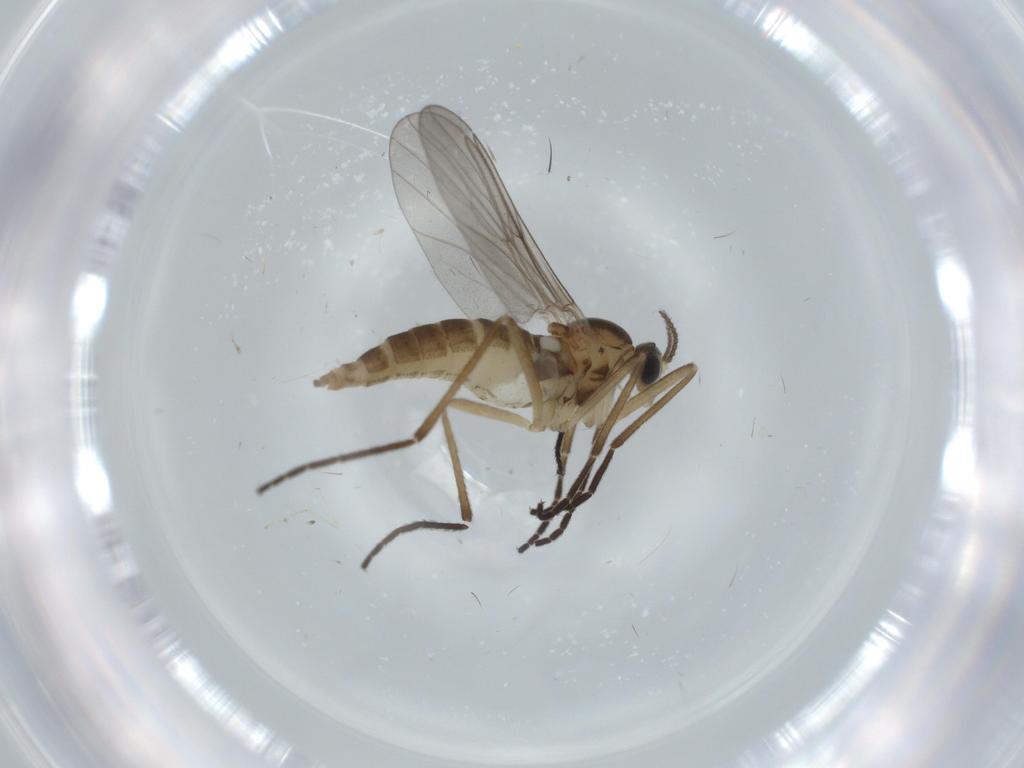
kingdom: Animalia
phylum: Arthropoda
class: Insecta
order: Diptera
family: Cecidomyiidae
